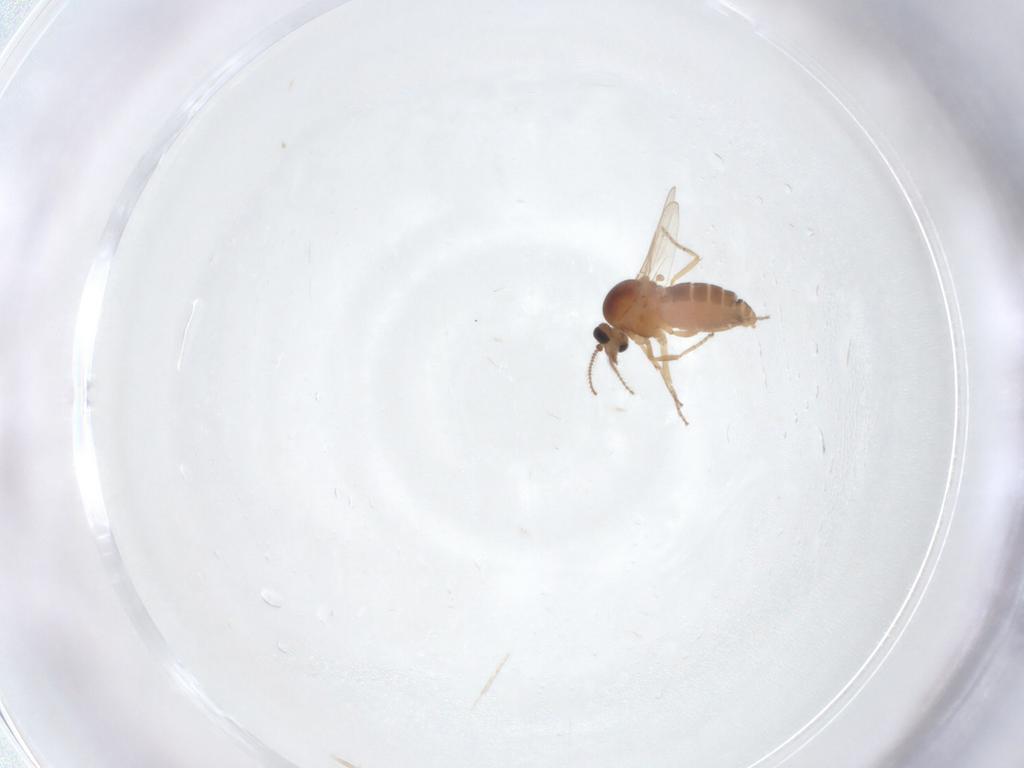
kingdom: Animalia
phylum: Arthropoda
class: Insecta
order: Diptera
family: Ceratopogonidae
